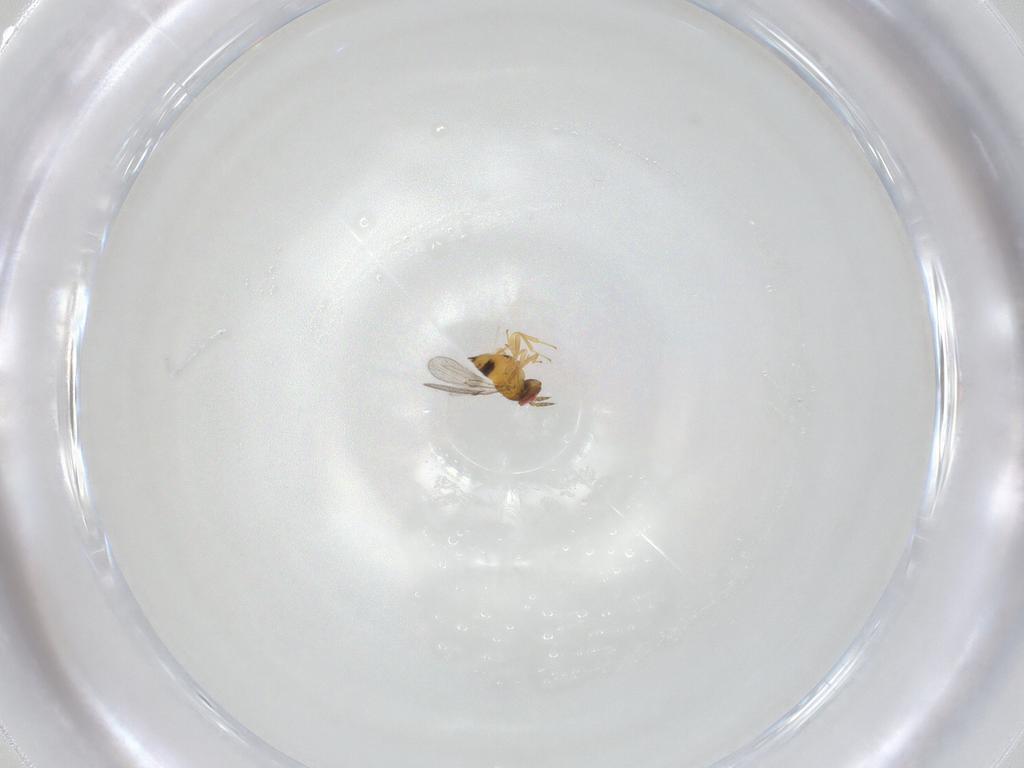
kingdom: Animalia
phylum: Arthropoda
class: Insecta
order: Hymenoptera
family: Trichogrammatidae
